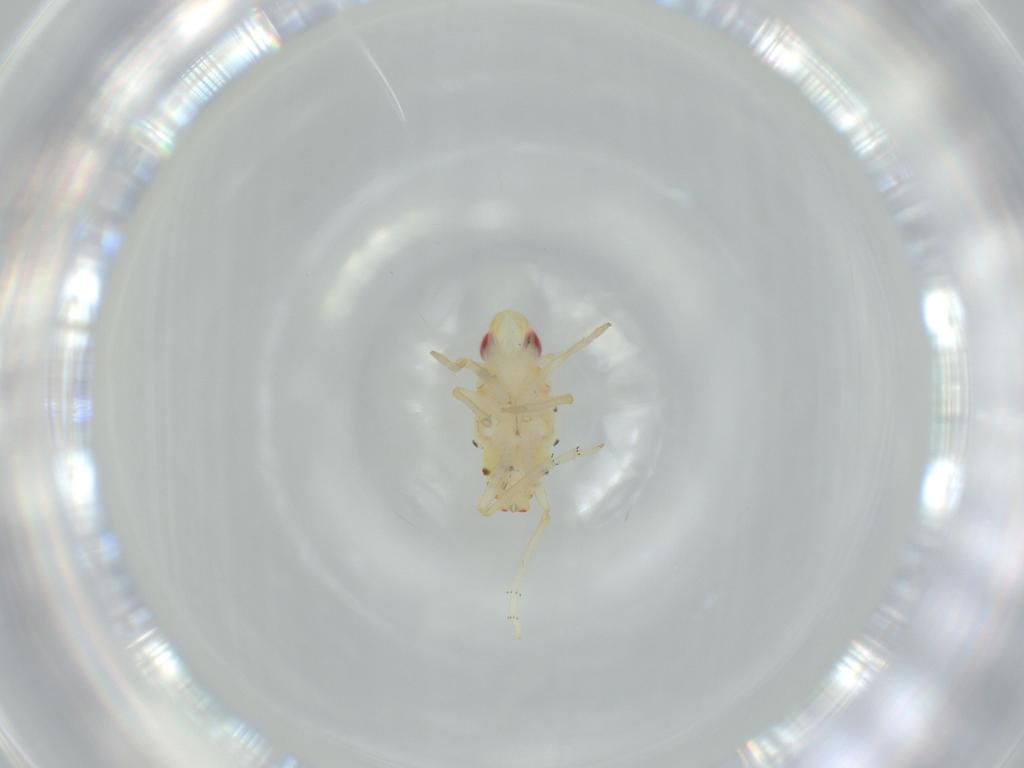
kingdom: Animalia
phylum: Arthropoda
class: Insecta
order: Hemiptera
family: Tropiduchidae
